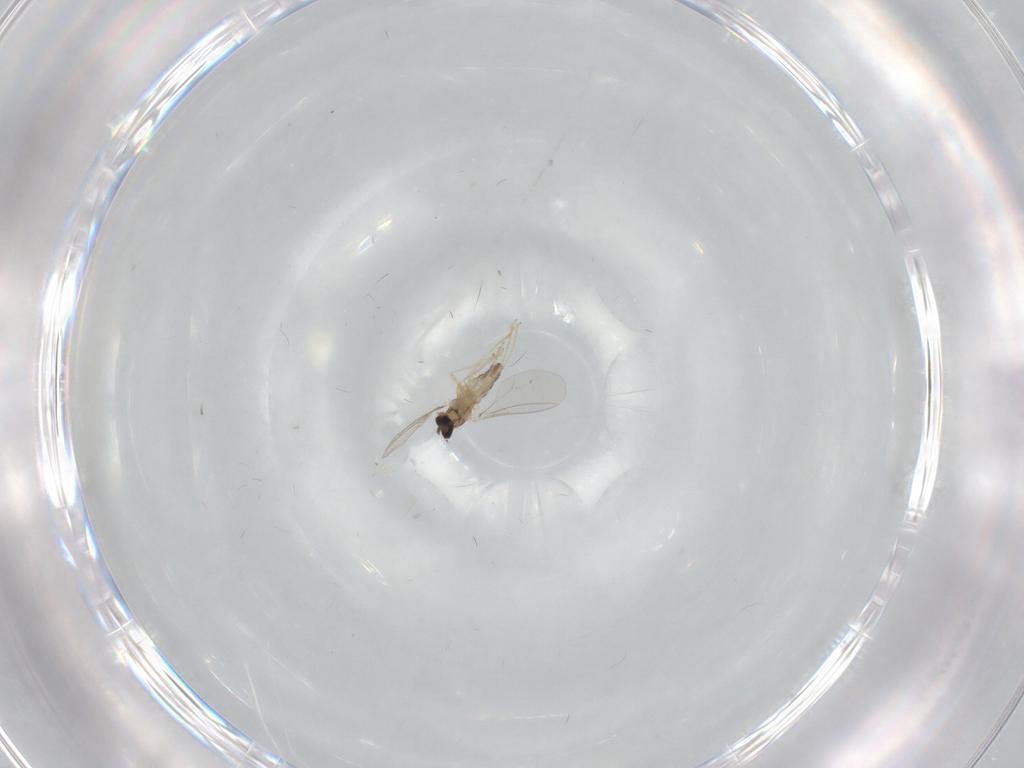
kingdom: Animalia
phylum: Arthropoda
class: Insecta
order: Diptera
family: Cecidomyiidae
